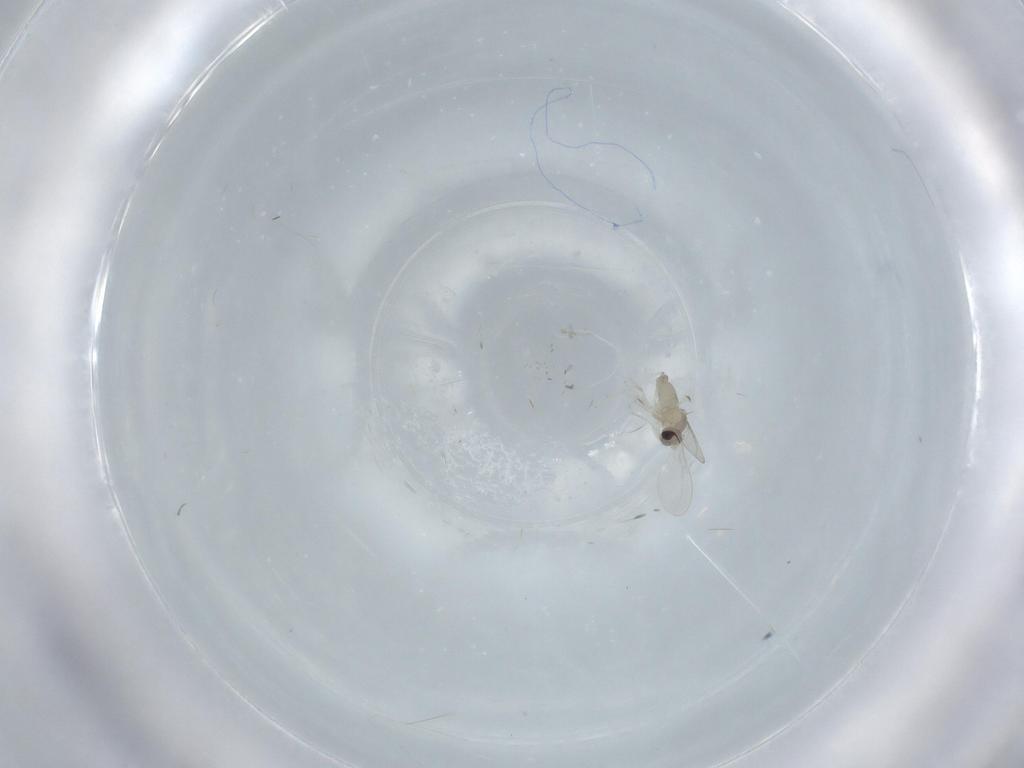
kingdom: Animalia
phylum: Arthropoda
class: Insecta
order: Diptera
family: Cecidomyiidae
